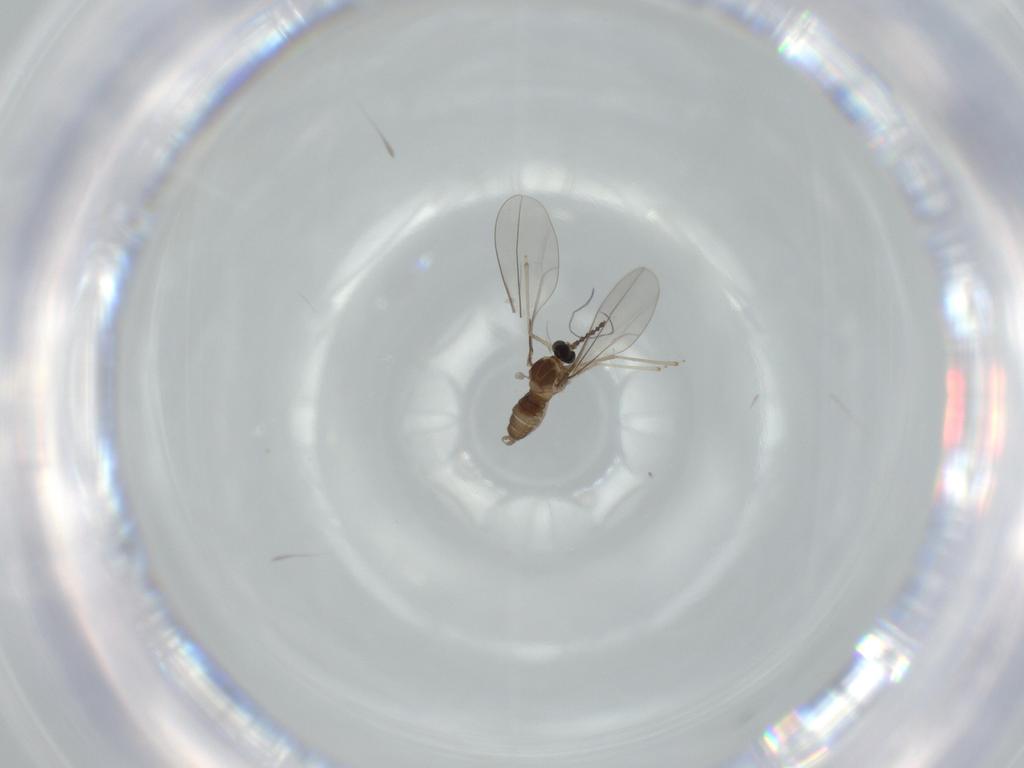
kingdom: Animalia
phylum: Arthropoda
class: Insecta
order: Diptera
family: Cecidomyiidae
